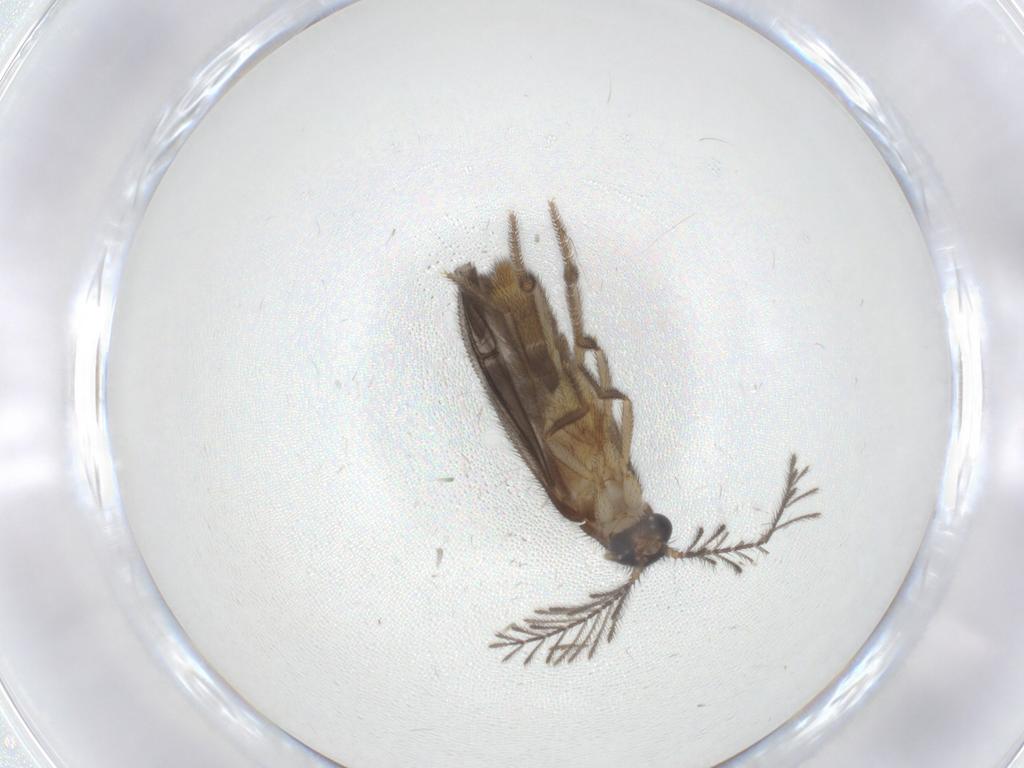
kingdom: Animalia
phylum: Arthropoda
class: Insecta
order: Coleoptera
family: Phengodidae
